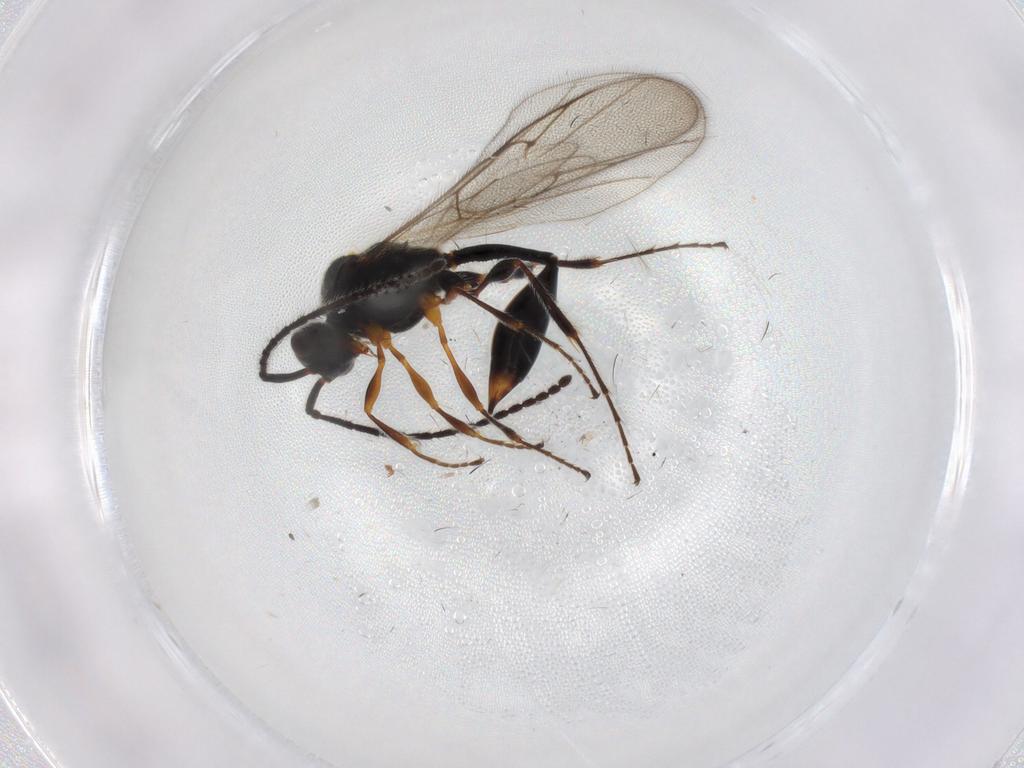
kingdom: Animalia
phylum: Arthropoda
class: Insecta
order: Hymenoptera
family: Diapriidae
